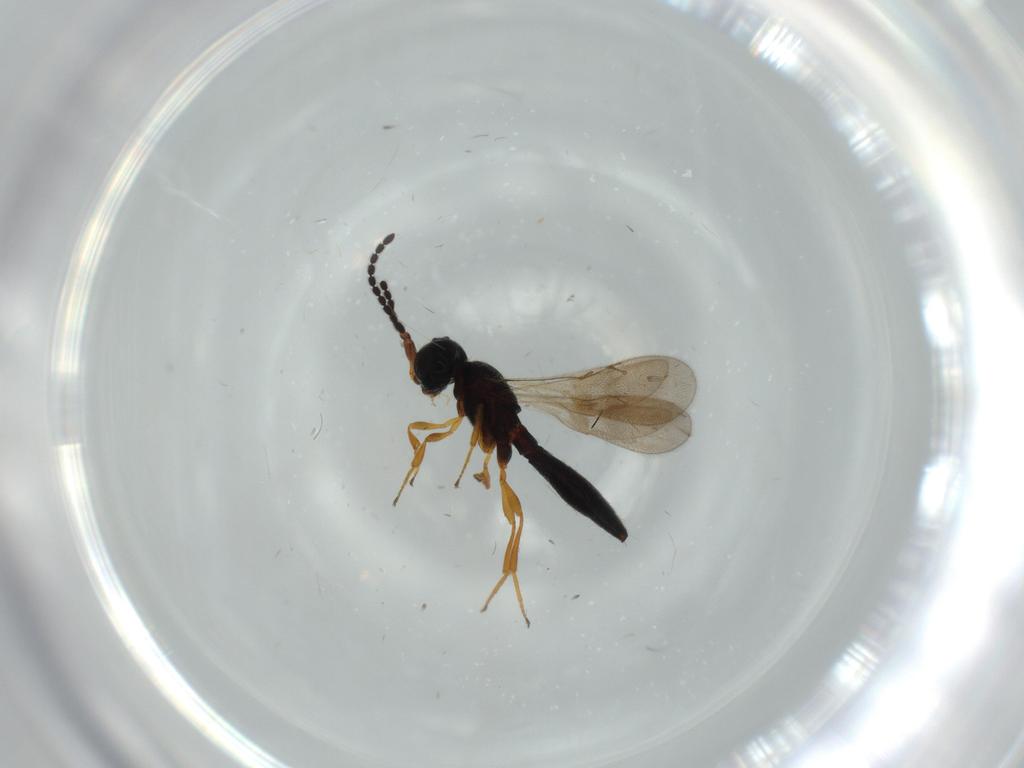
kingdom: Animalia
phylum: Arthropoda
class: Insecta
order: Hymenoptera
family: Scelionidae
